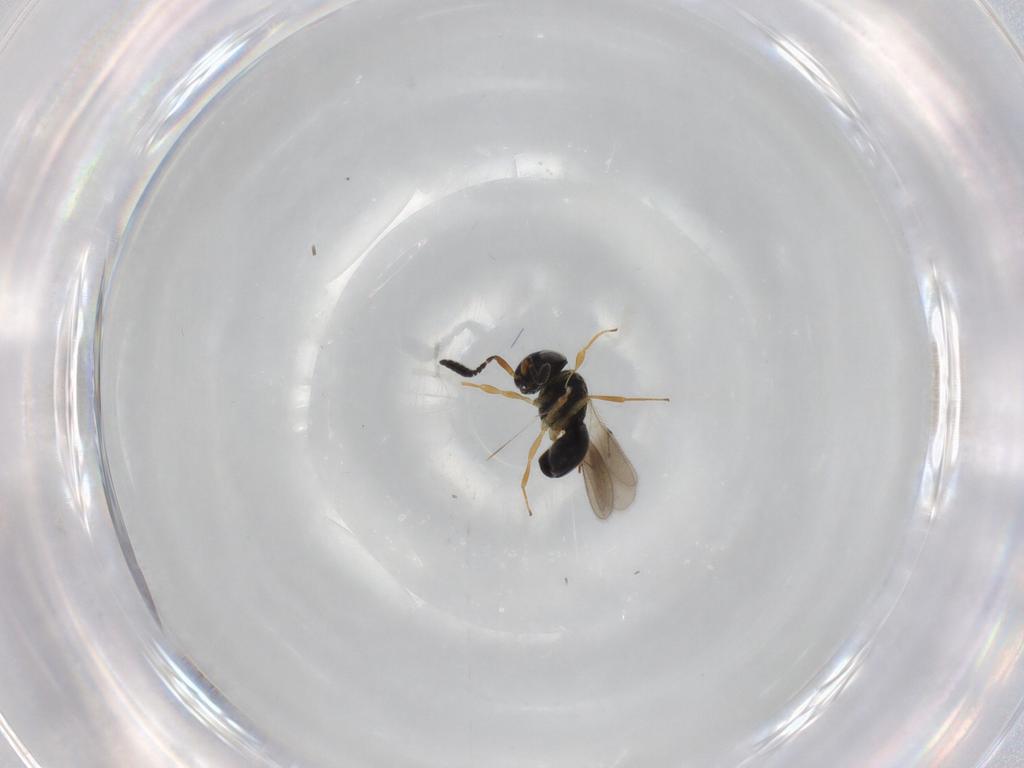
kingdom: Animalia
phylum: Arthropoda
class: Insecta
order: Hymenoptera
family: Scelionidae
